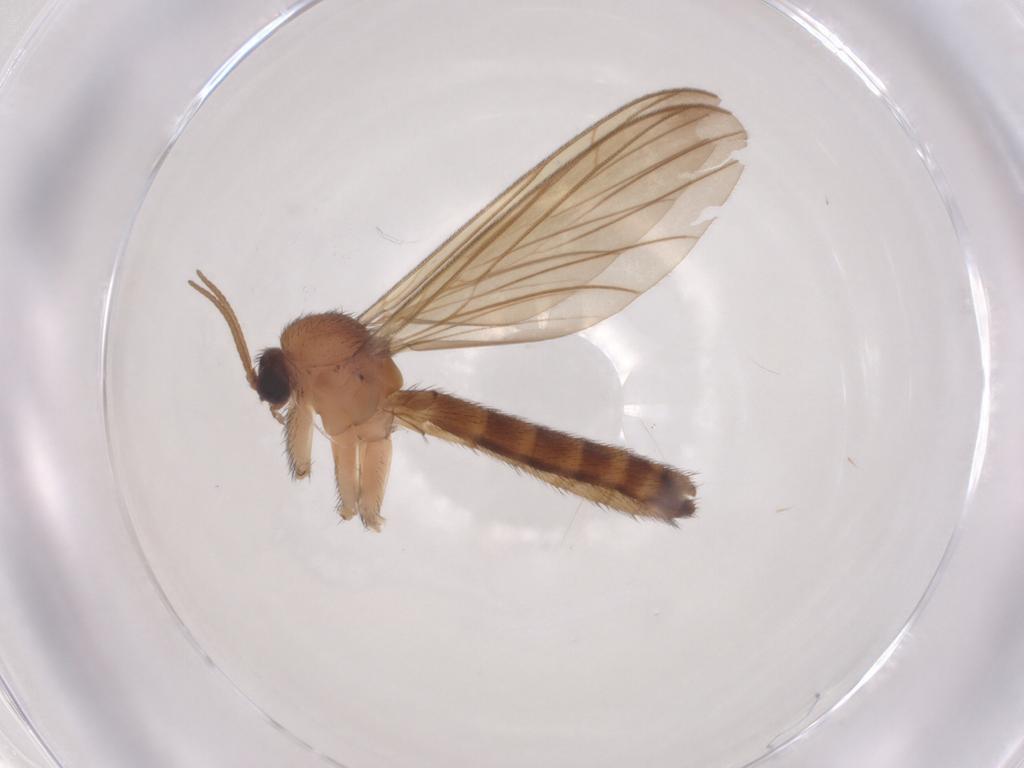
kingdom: Animalia
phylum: Arthropoda
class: Insecta
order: Diptera
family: Keroplatidae
